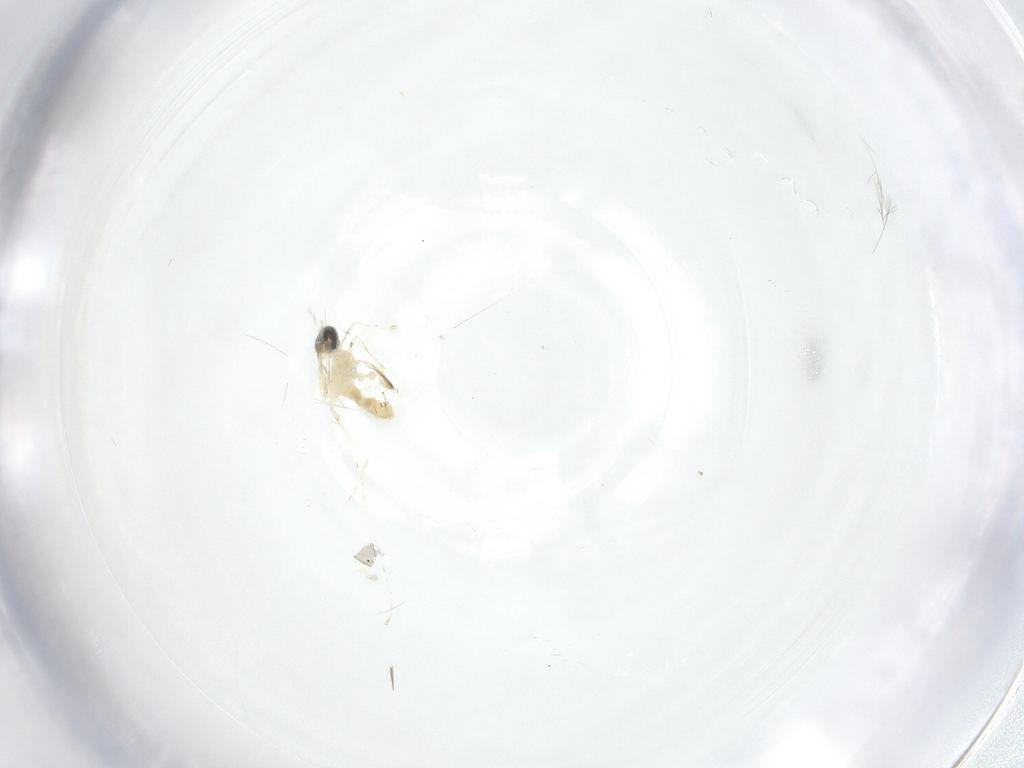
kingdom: Animalia
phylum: Arthropoda
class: Insecta
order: Diptera
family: Cecidomyiidae
